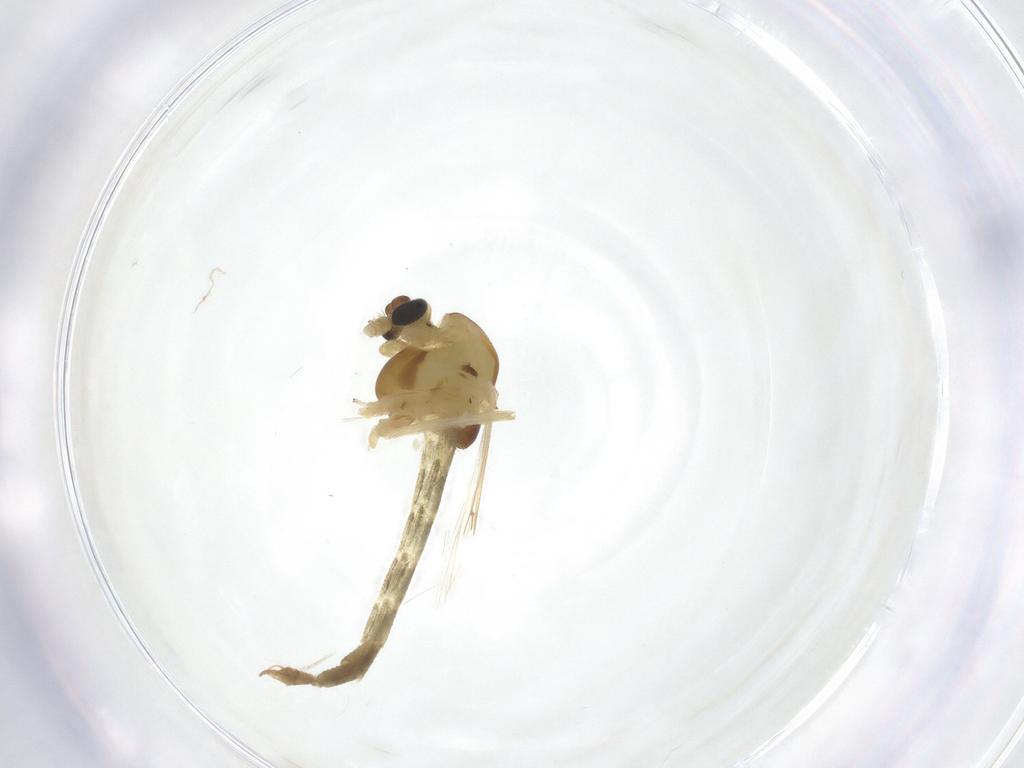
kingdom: Animalia
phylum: Arthropoda
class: Insecta
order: Diptera
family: Chironomidae
